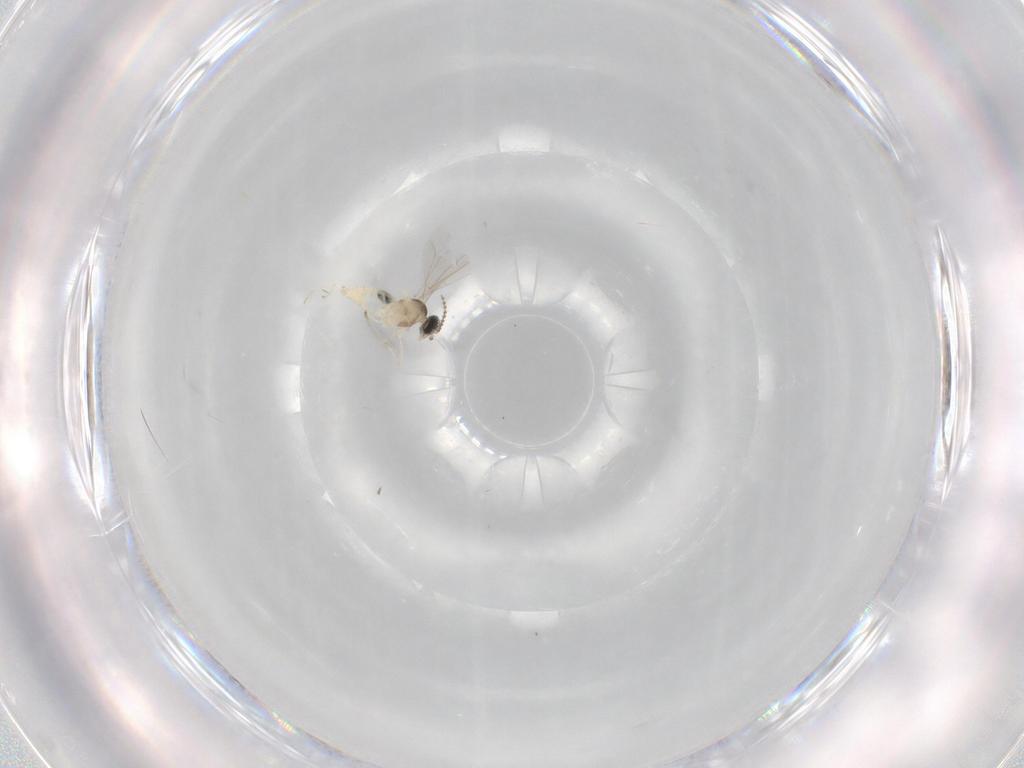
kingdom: Animalia
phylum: Arthropoda
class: Insecta
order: Diptera
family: Cecidomyiidae
